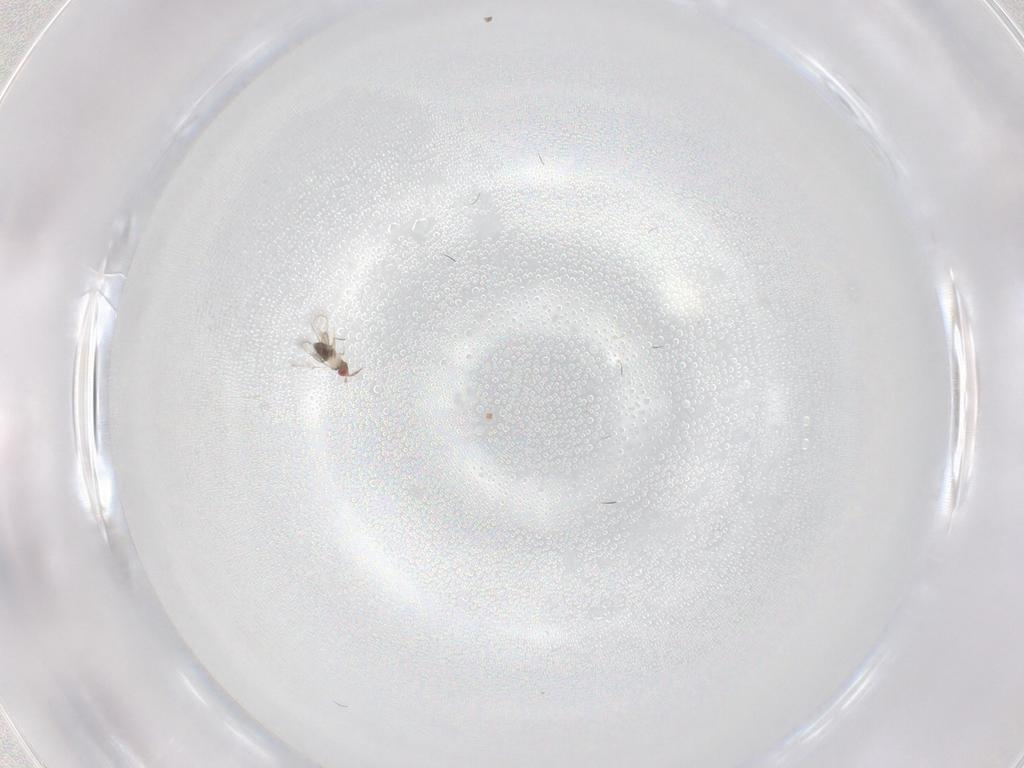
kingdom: Animalia
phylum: Arthropoda
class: Insecta
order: Hymenoptera
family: Trichogrammatidae
